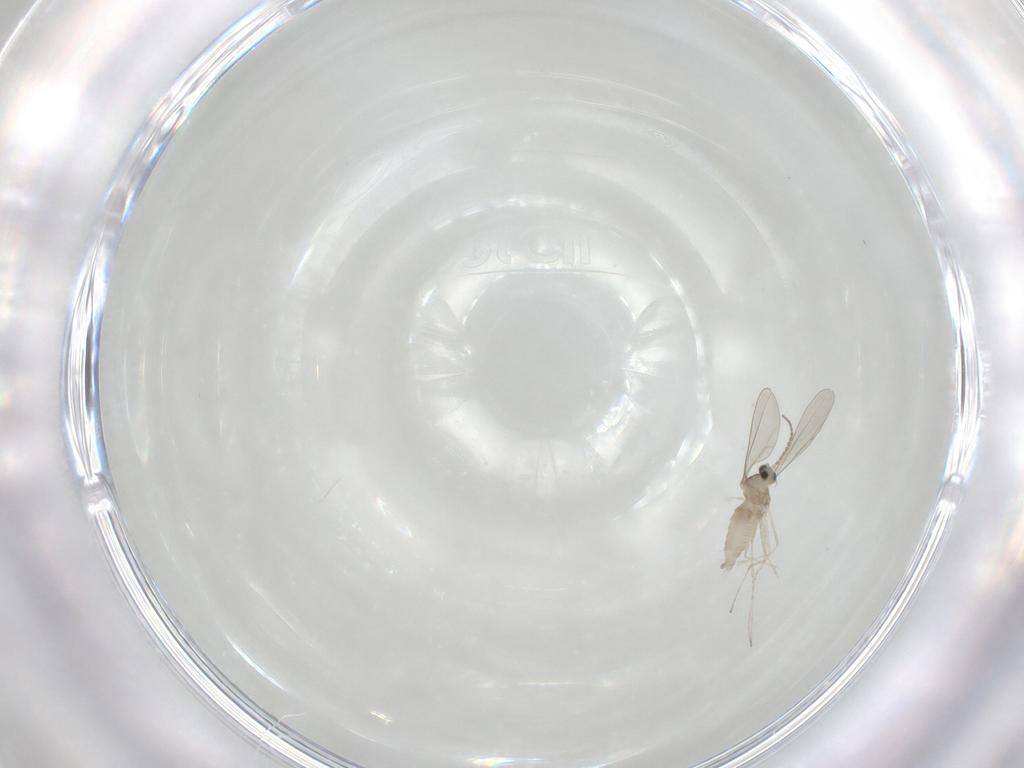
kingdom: Animalia
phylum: Arthropoda
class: Insecta
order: Diptera
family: Cecidomyiidae
